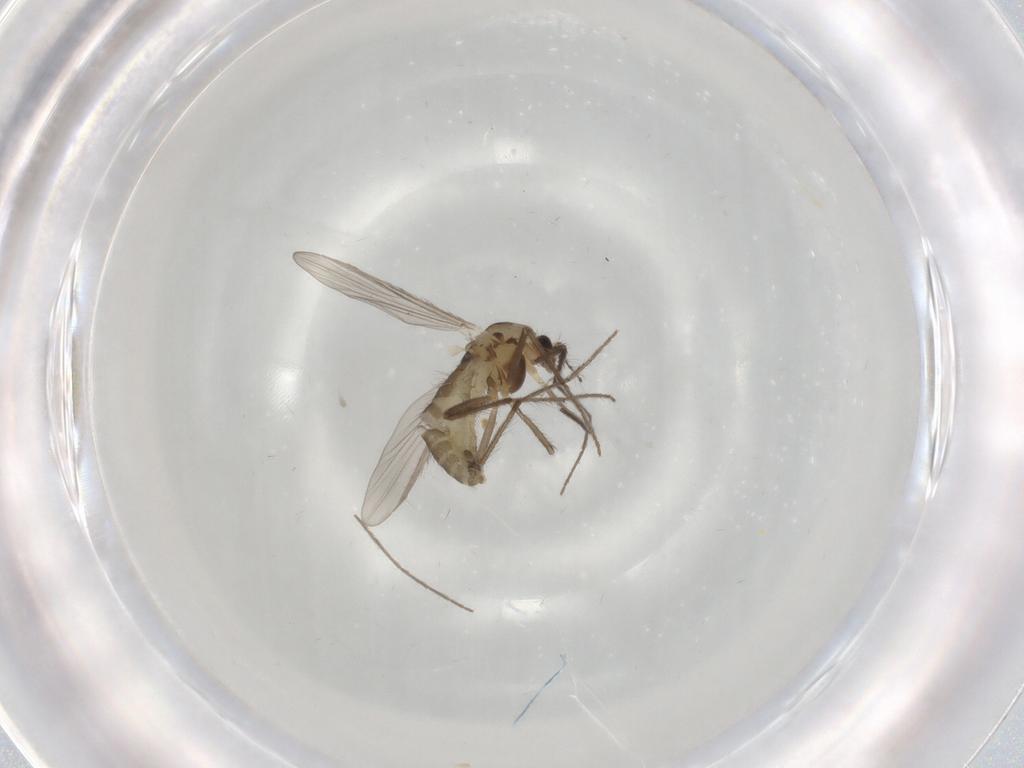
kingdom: Animalia
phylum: Arthropoda
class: Insecta
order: Diptera
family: Chironomidae
